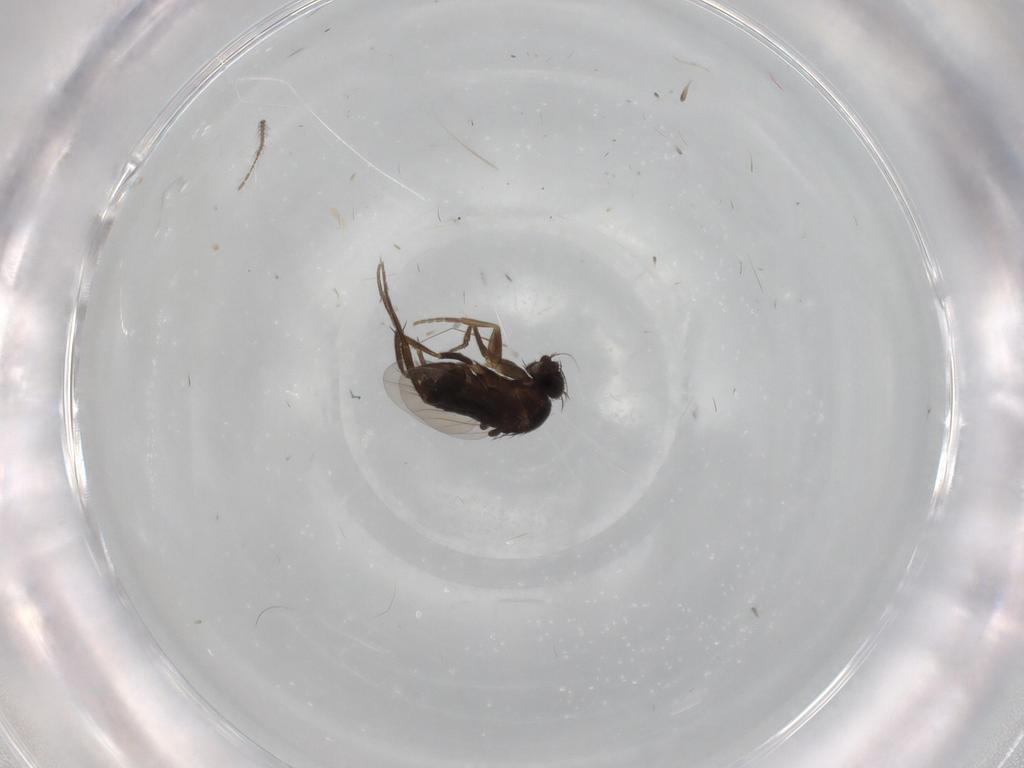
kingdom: Animalia
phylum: Arthropoda
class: Insecta
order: Diptera
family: Phoridae
